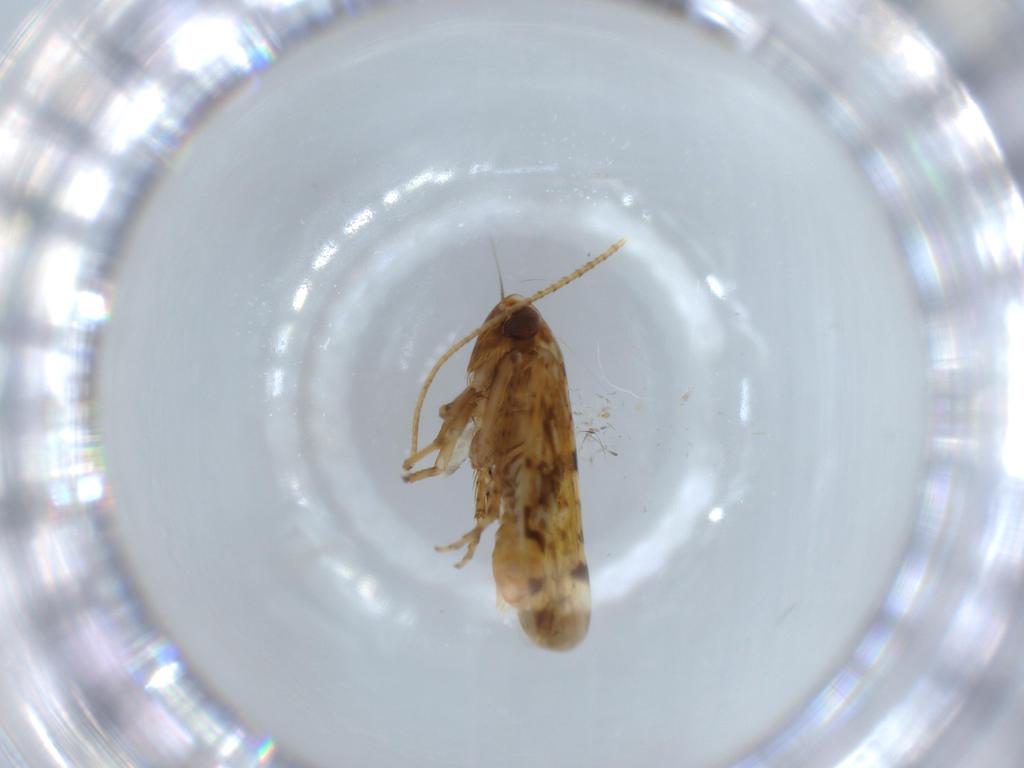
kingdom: Animalia
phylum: Arthropoda
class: Insecta
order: Hemiptera
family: Cicadellidae
